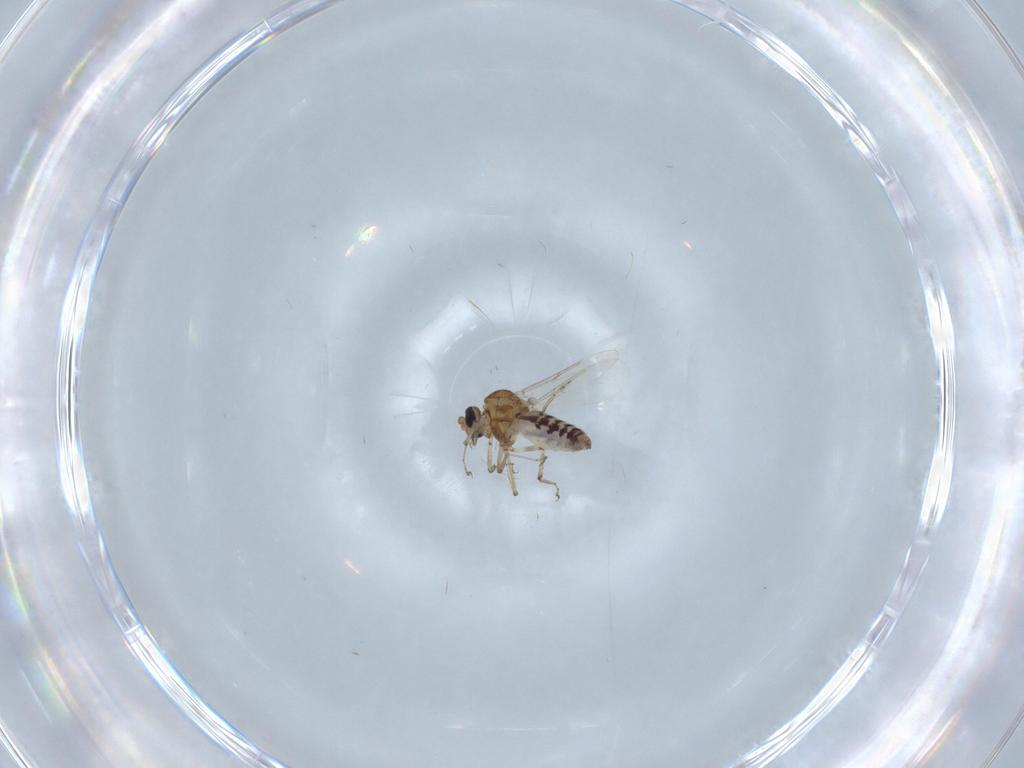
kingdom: Animalia
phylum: Arthropoda
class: Insecta
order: Diptera
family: Ceratopogonidae
